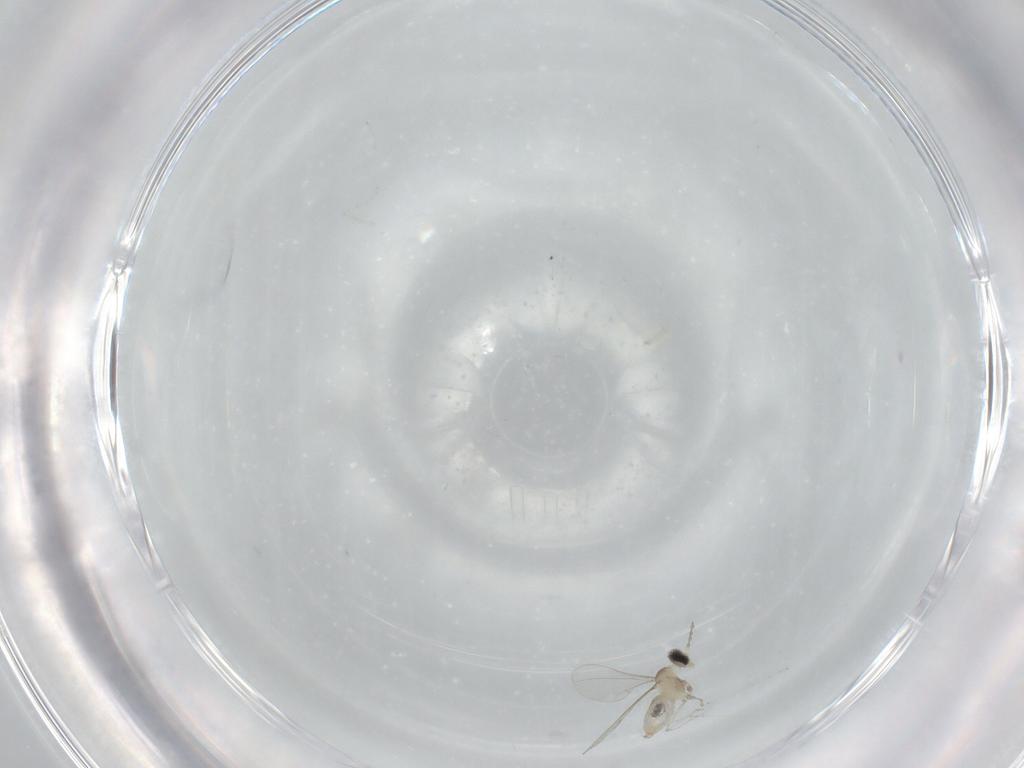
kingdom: Animalia
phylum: Arthropoda
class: Insecta
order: Diptera
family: Cecidomyiidae
